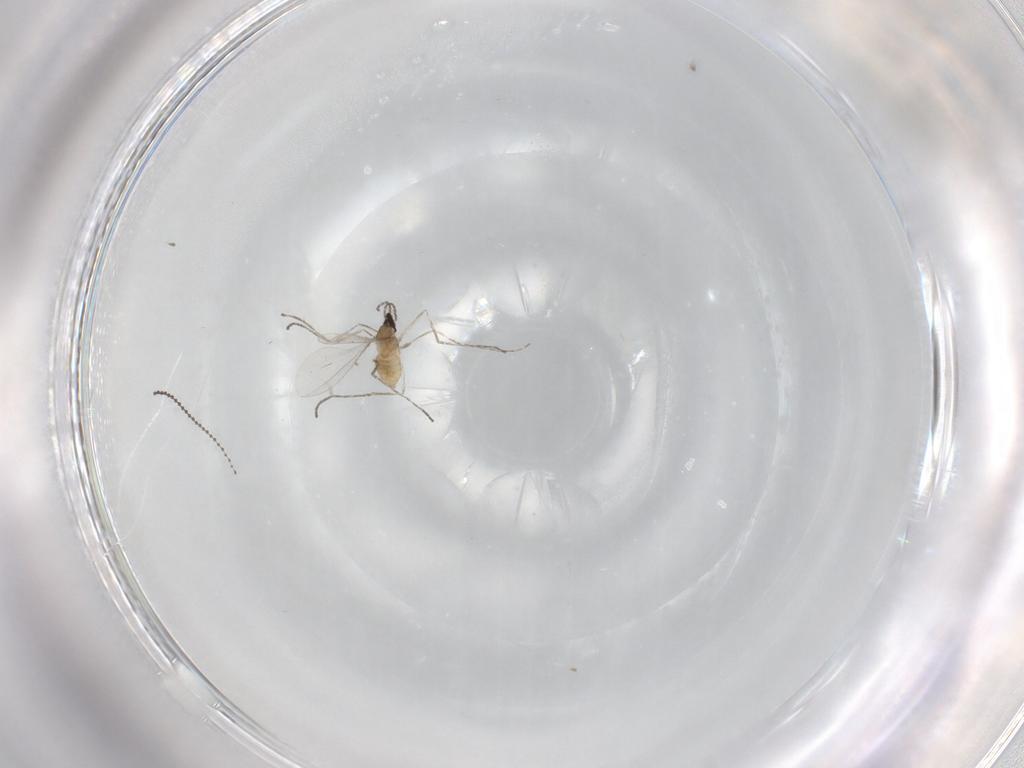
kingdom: Animalia
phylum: Arthropoda
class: Insecta
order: Diptera
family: Cecidomyiidae
